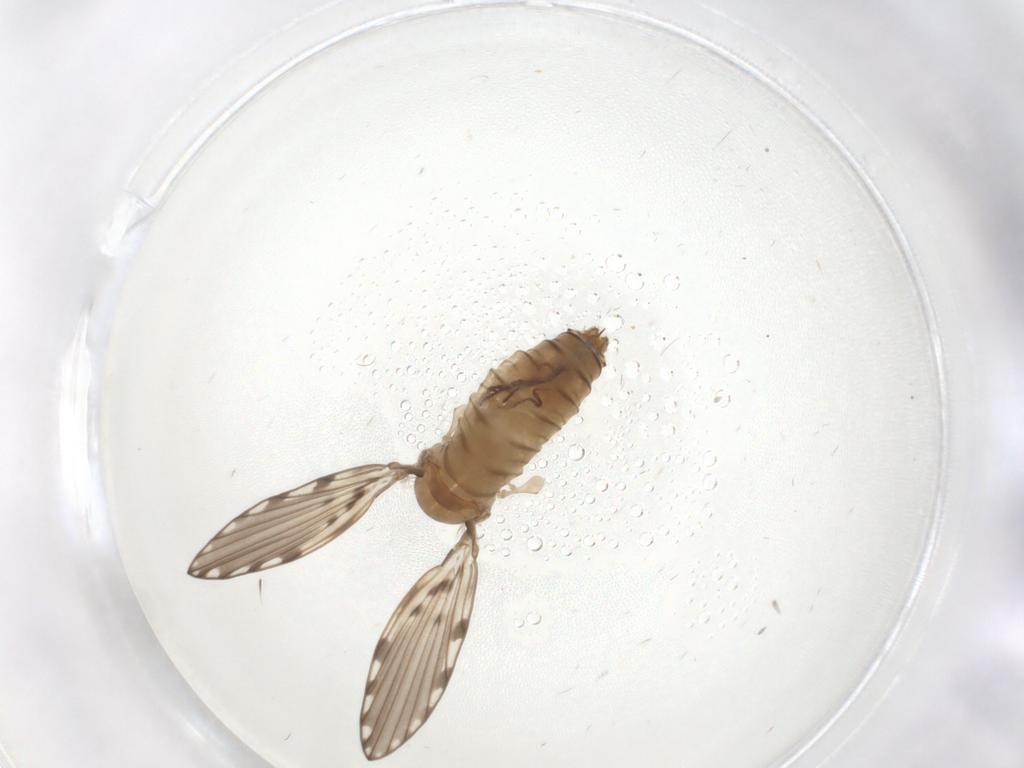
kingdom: Animalia
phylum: Arthropoda
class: Insecta
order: Diptera
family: Psychodidae
